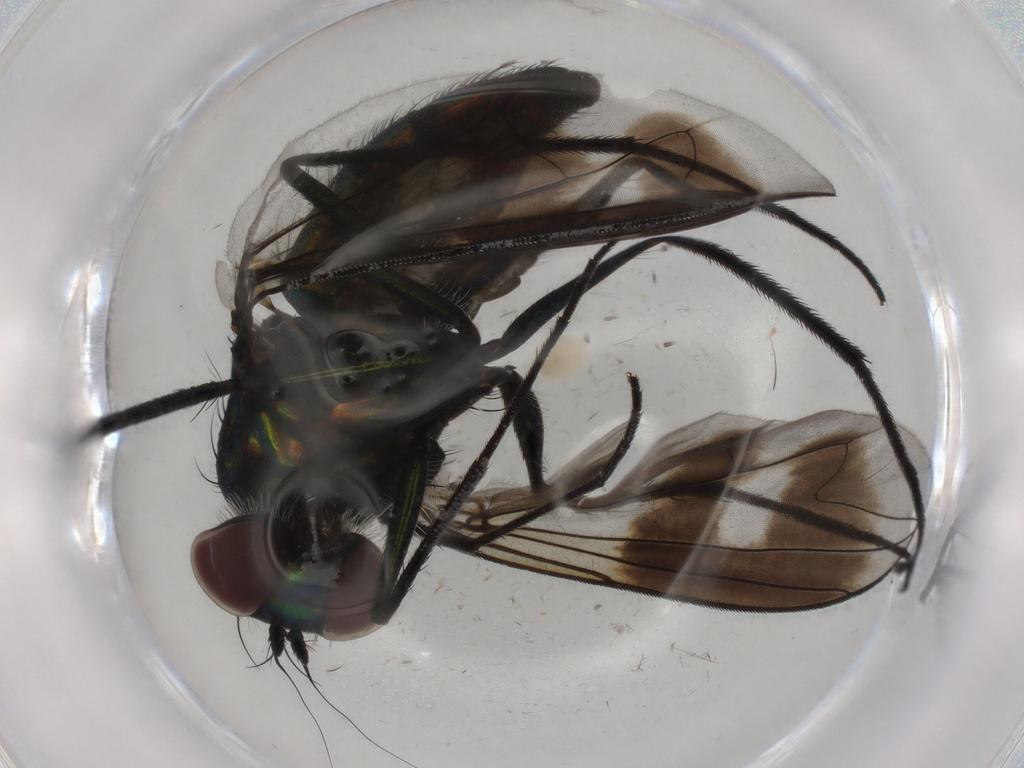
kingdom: Animalia
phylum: Arthropoda
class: Insecta
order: Diptera
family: Dolichopodidae
